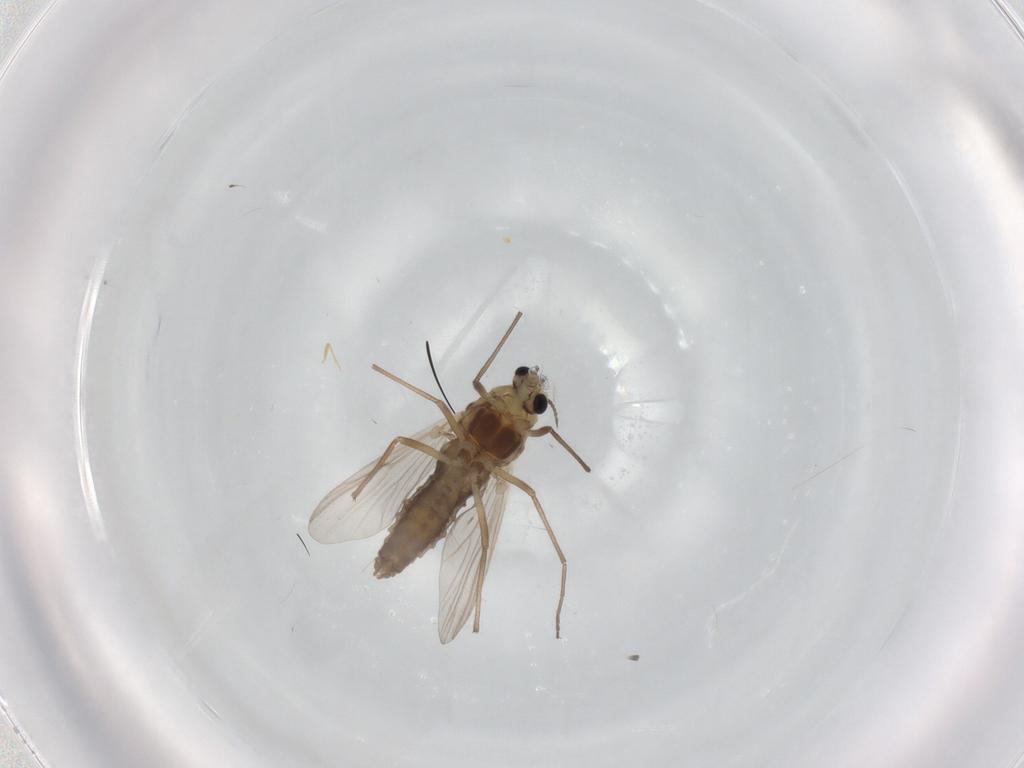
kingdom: Animalia
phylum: Arthropoda
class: Insecta
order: Diptera
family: Chironomidae
